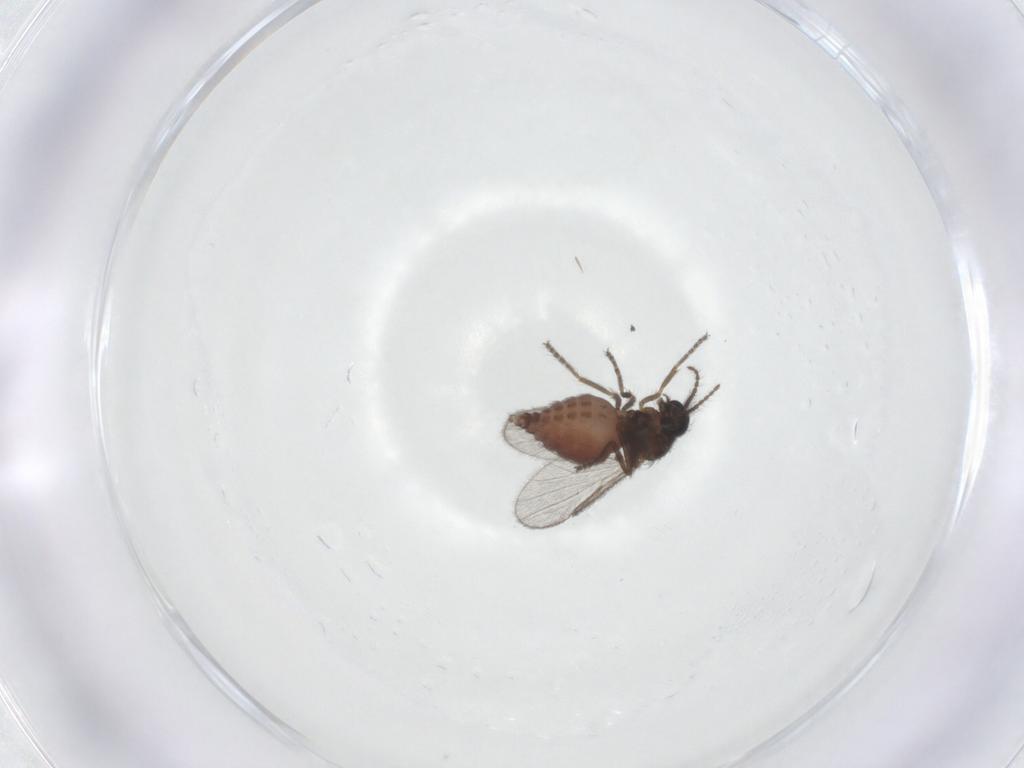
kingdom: Animalia
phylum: Arthropoda
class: Insecta
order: Diptera
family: Ceratopogonidae
